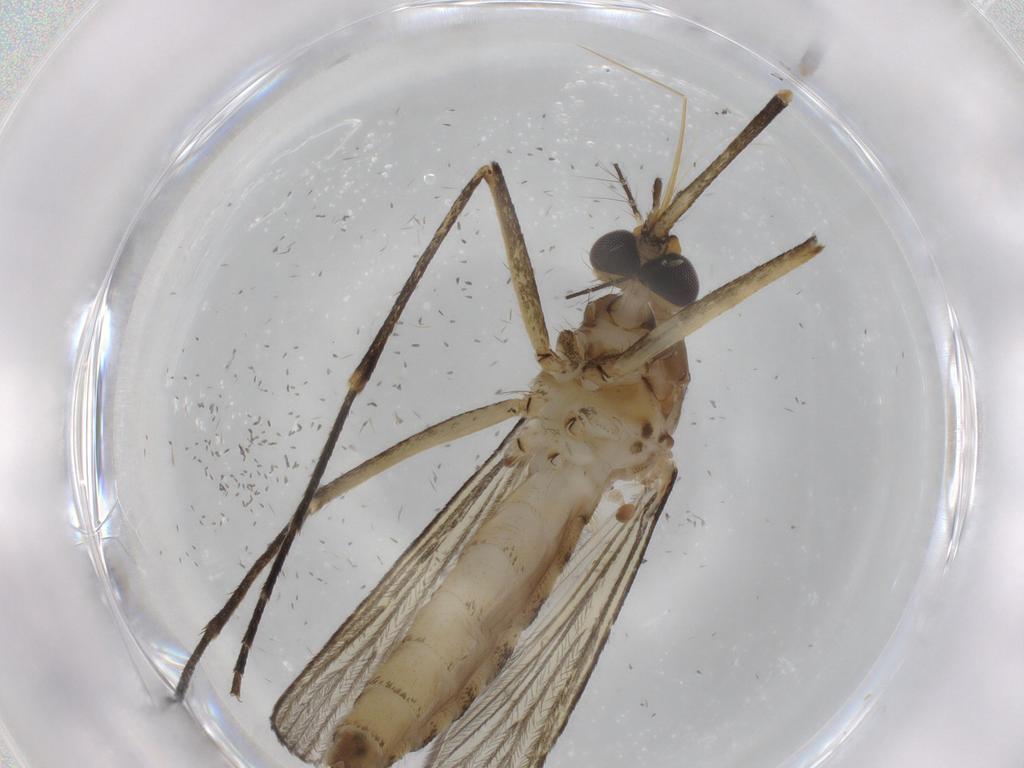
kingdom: Animalia
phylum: Arthropoda
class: Insecta
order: Diptera
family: Culicidae
